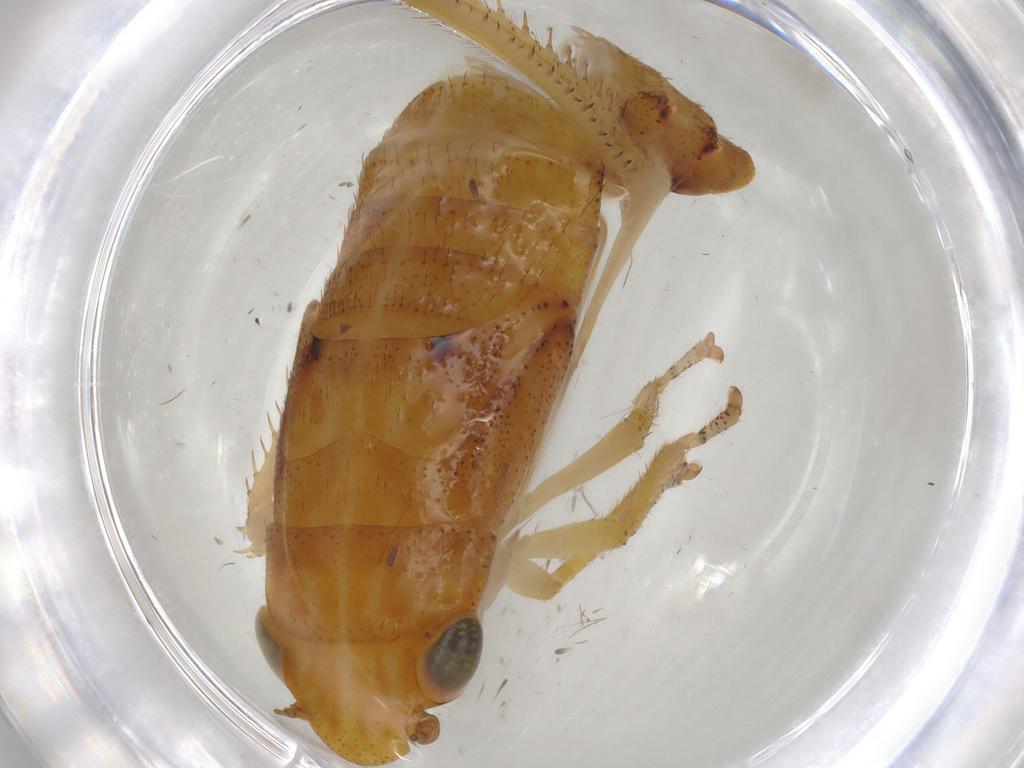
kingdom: Animalia
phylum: Arthropoda
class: Insecta
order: Hemiptera
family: Cicadellidae
